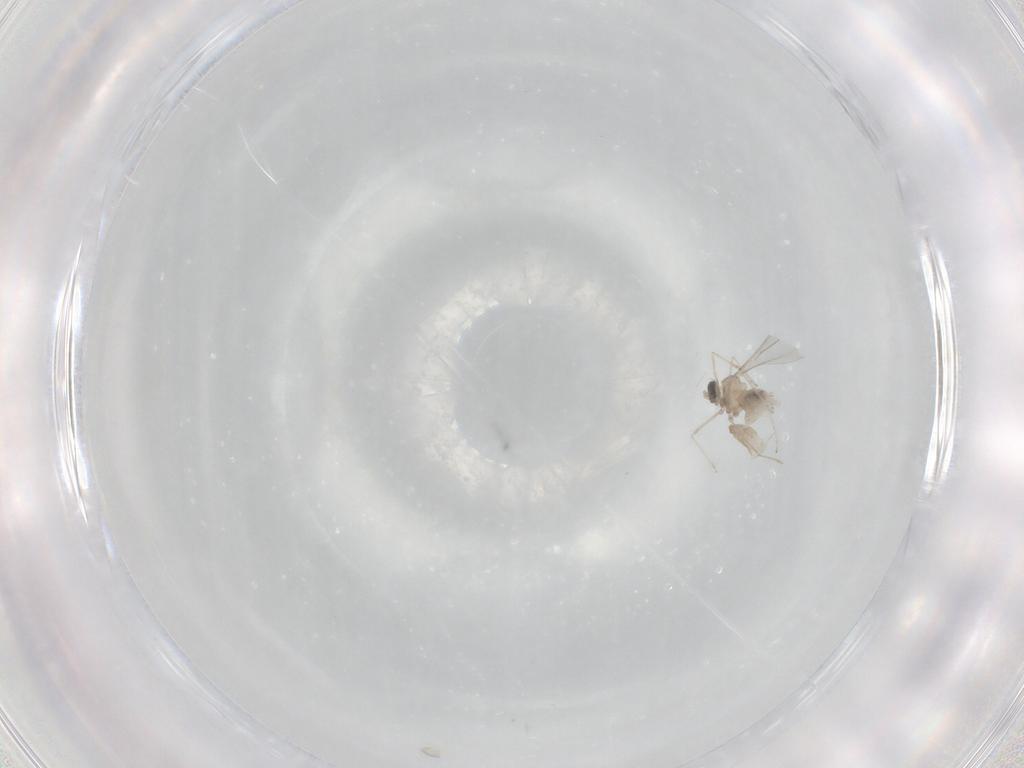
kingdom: Animalia
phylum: Arthropoda
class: Insecta
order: Diptera
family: Cecidomyiidae
